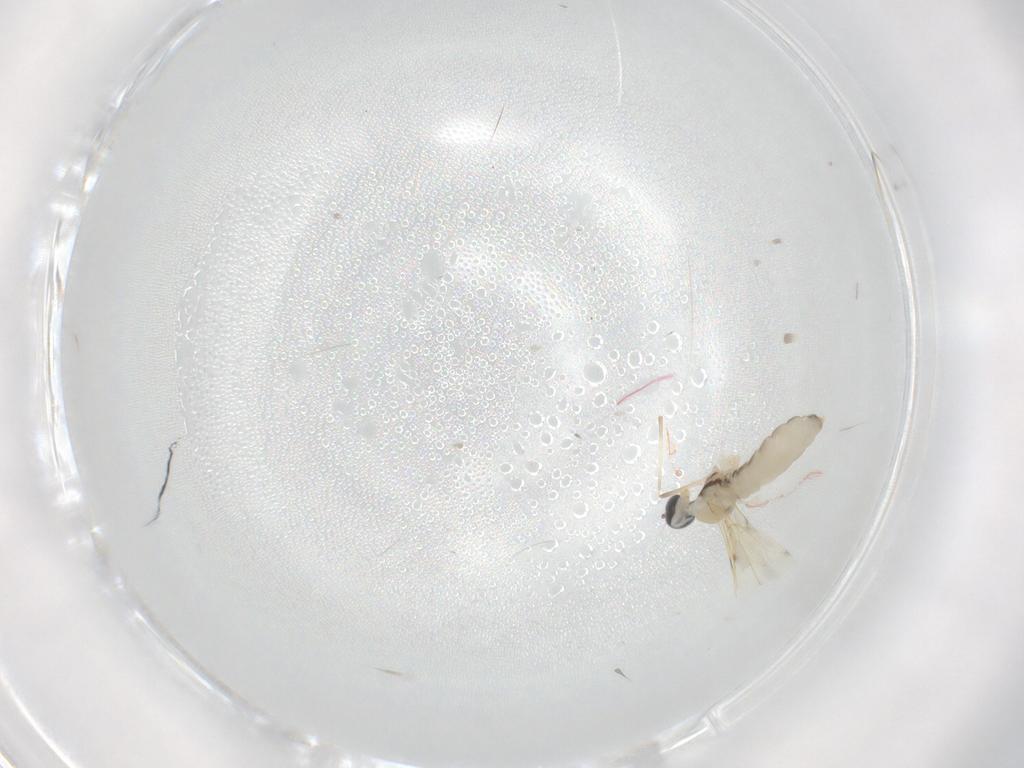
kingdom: Animalia
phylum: Arthropoda
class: Insecta
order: Diptera
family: Cecidomyiidae
